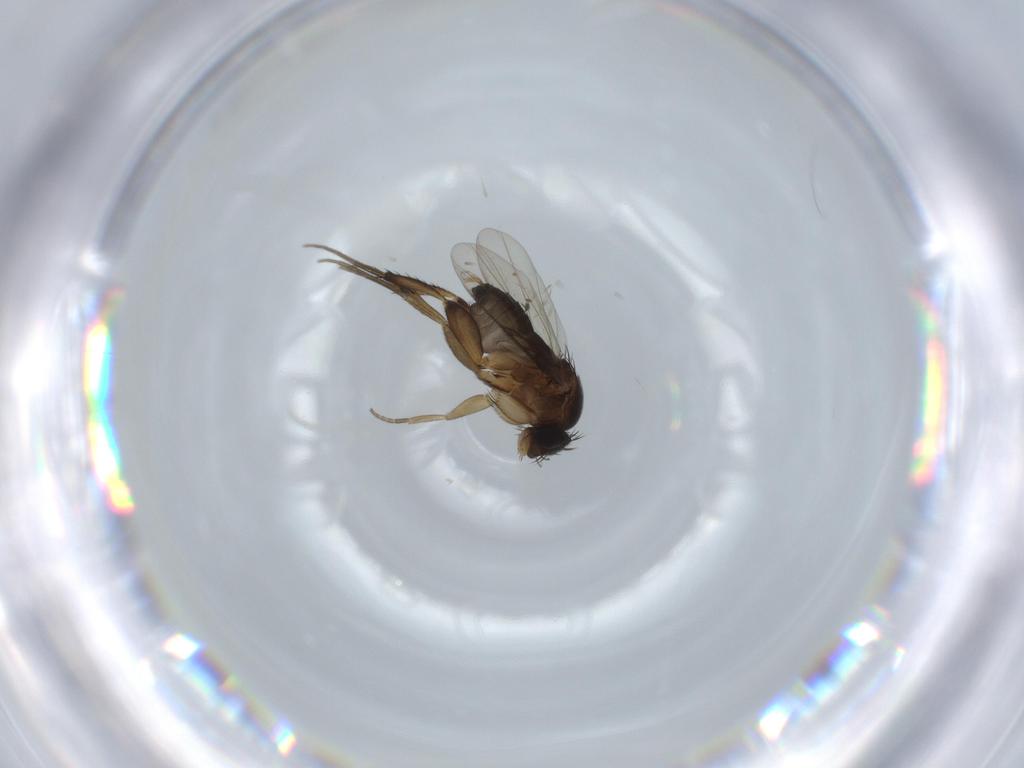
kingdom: Animalia
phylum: Arthropoda
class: Insecta
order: Diptera
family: Phoridae
